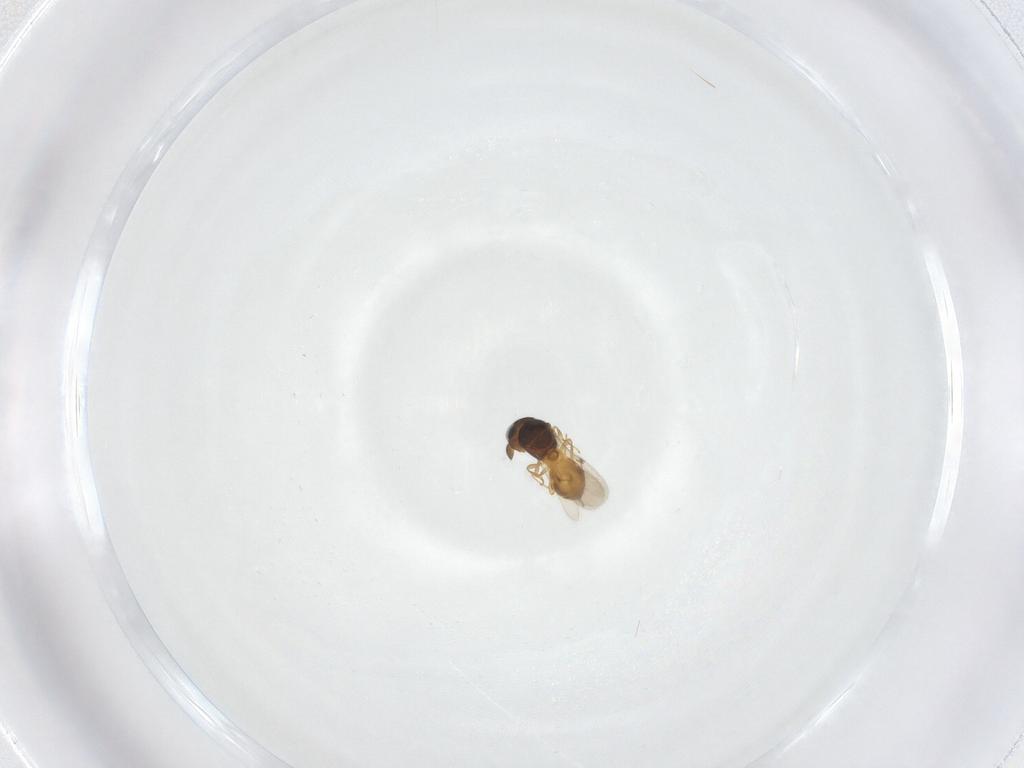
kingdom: Animalia
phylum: Arthropoda
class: Insecta
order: Hymenoptera
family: Scelionidae
